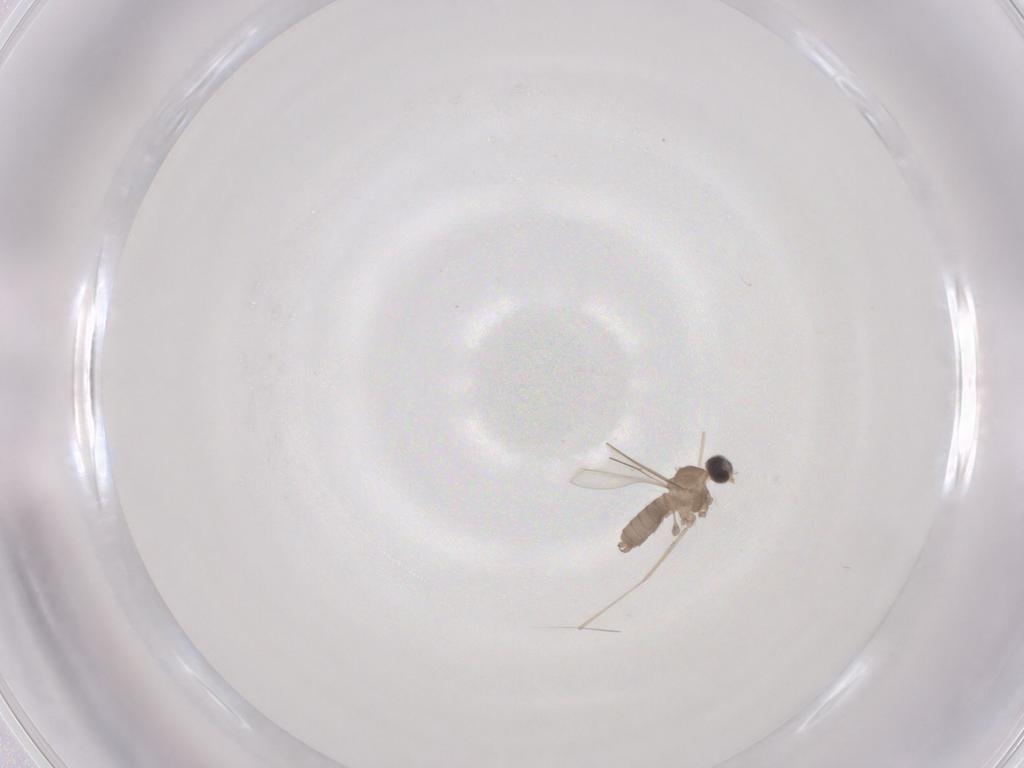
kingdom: Animalia
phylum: Arthropoda
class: Insecta
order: Diptera
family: Cecidomyiidae
